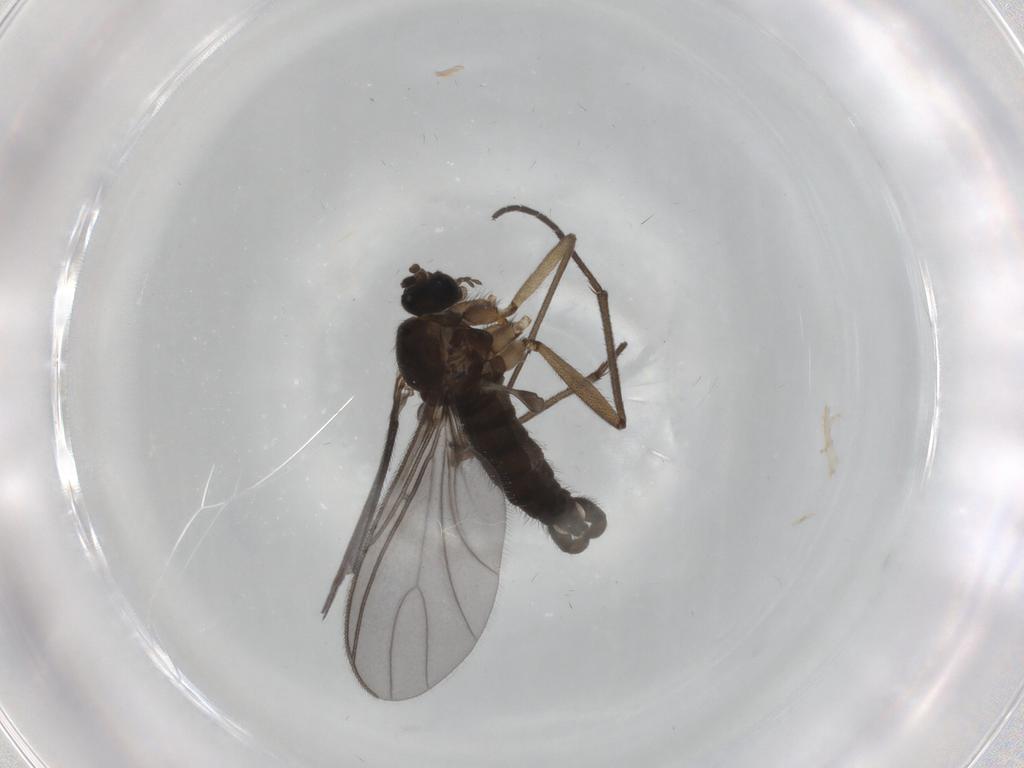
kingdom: Animalia
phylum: Arthropoda
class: Insecta
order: Diptera
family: Sciaridae
